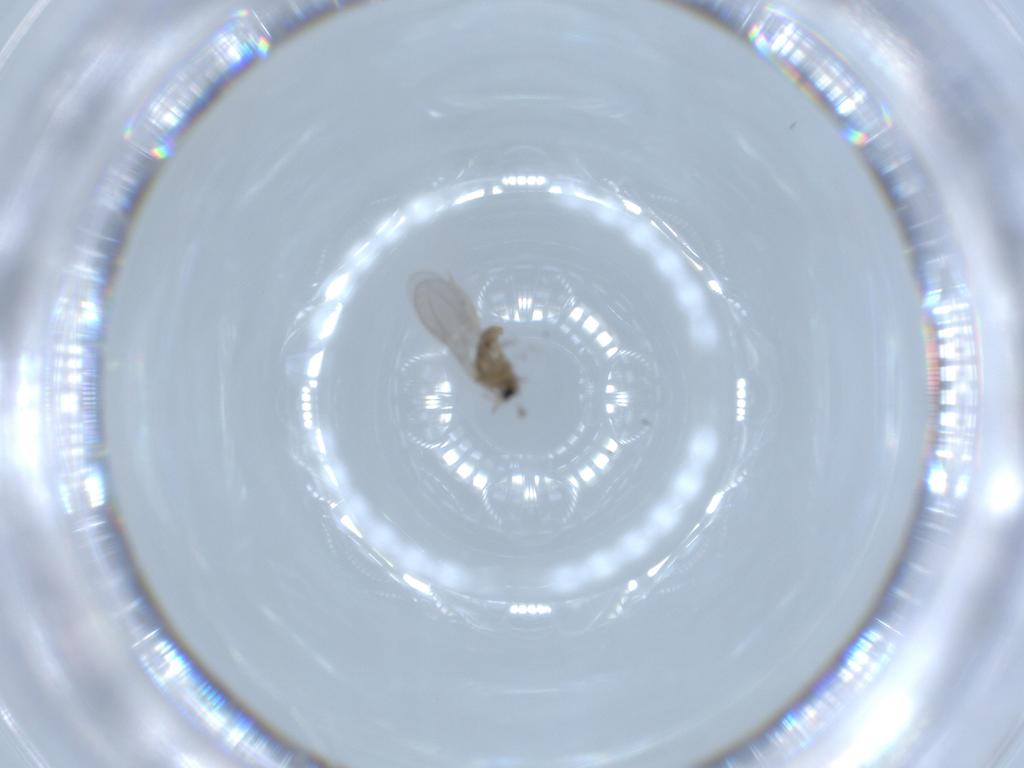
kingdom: Animalia
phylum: Arthropoda
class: Insecta
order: Diptera
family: Cecidomyiidae
